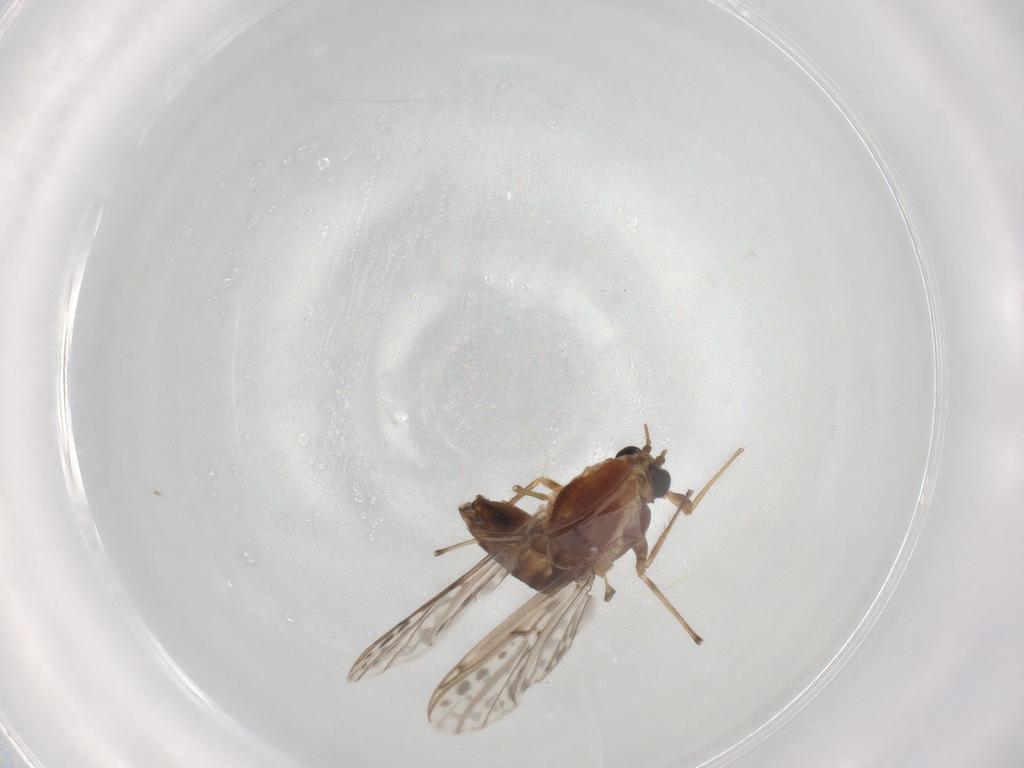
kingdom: Animalia
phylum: Arthropoda
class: Insecta
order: Diptera
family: Chironomidae
